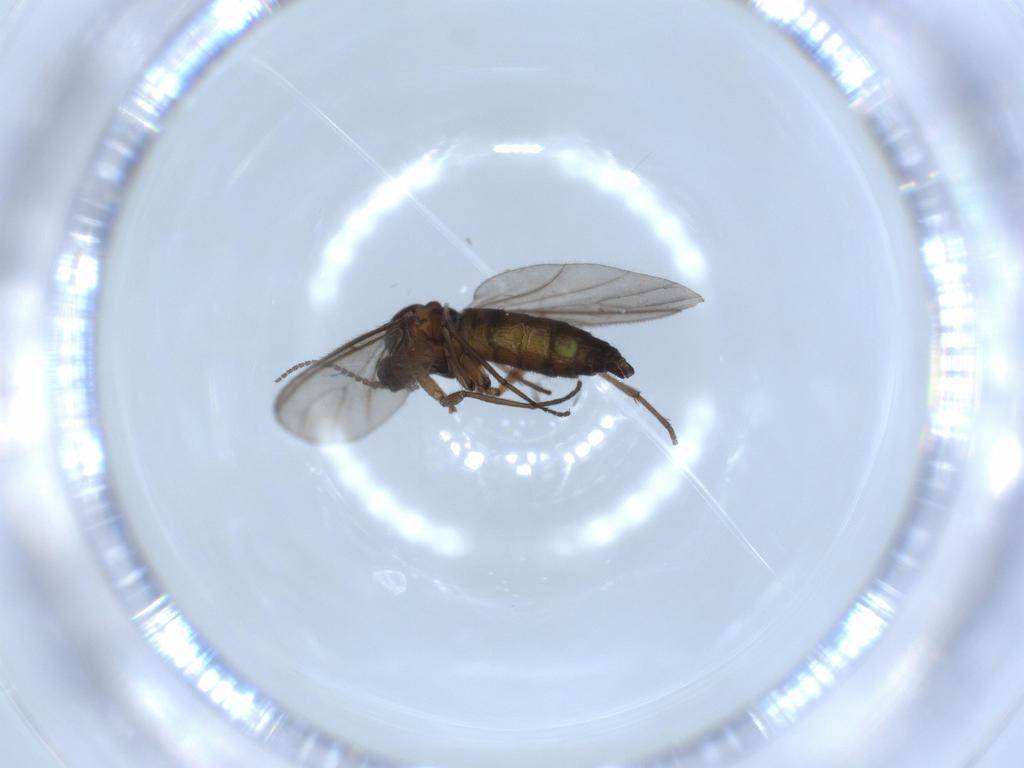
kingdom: Animalia
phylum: Arthropoda
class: Insecta
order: Diptera
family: Sciaridae
